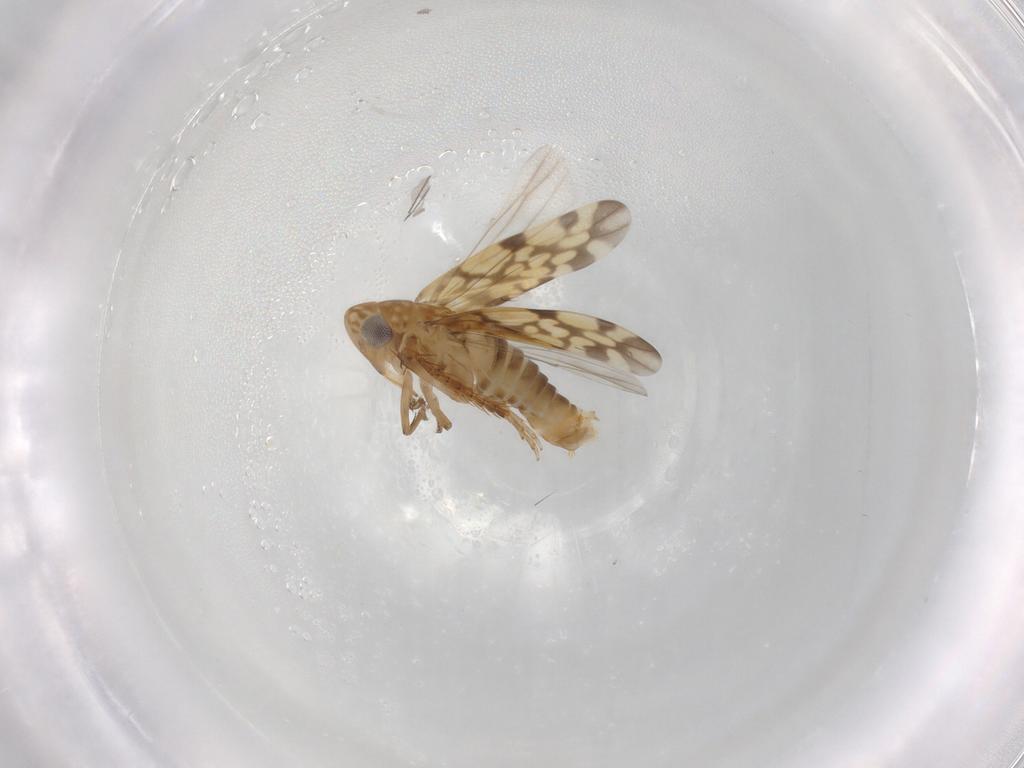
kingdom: Animalia
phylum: Arthropoda
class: Insecta
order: Hemiptera
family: Cicadellidae
